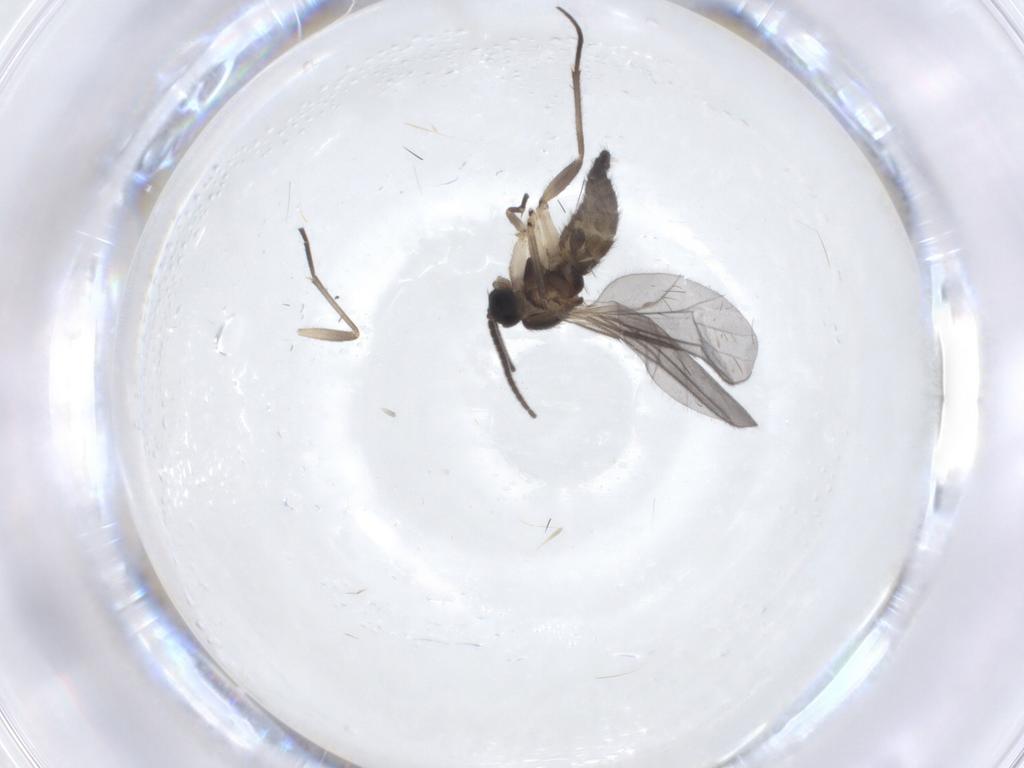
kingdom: Animalia
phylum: Arthropoda
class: Insecta
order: Diptera
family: Sciaridae
